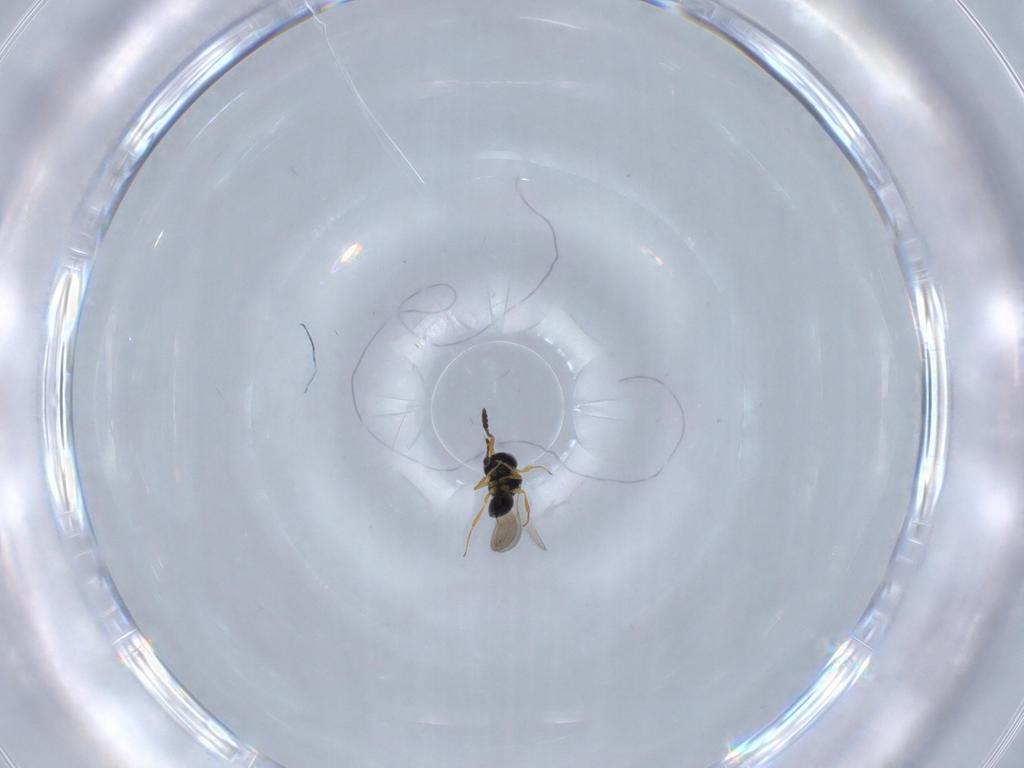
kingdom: Animalia
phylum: Arthropoda
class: Insecta
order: Hymenoptera
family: Scelionidae
